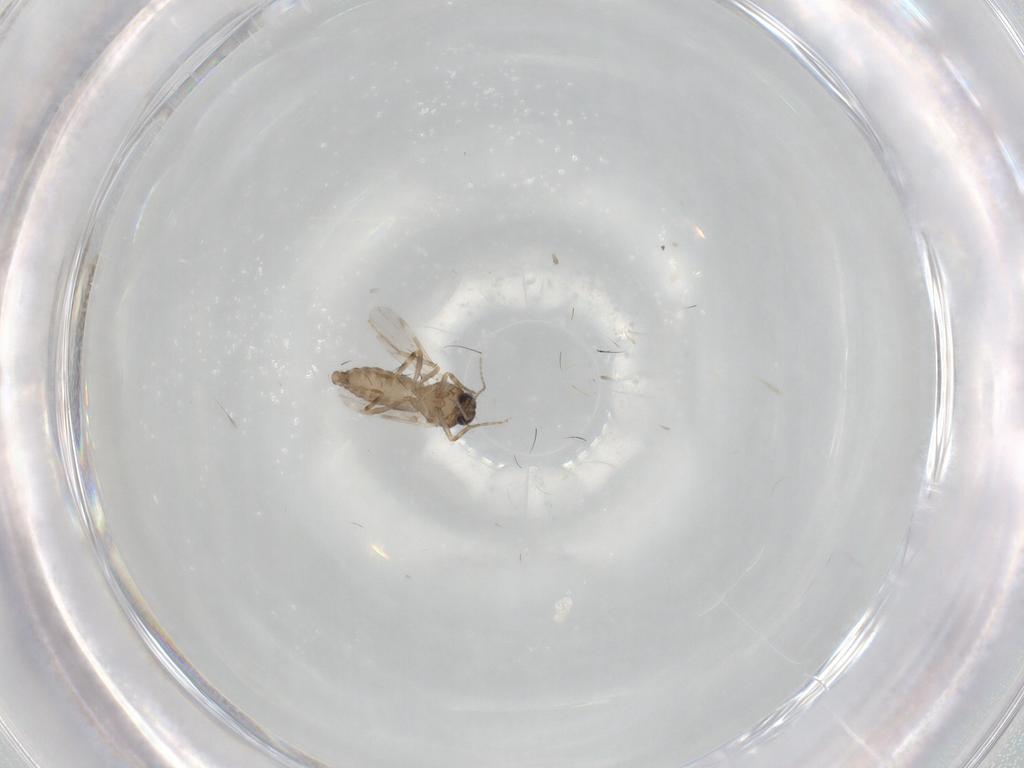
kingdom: Animalia
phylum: Arthropoda
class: Insecta
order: Diptera
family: Ceratopogonidae
